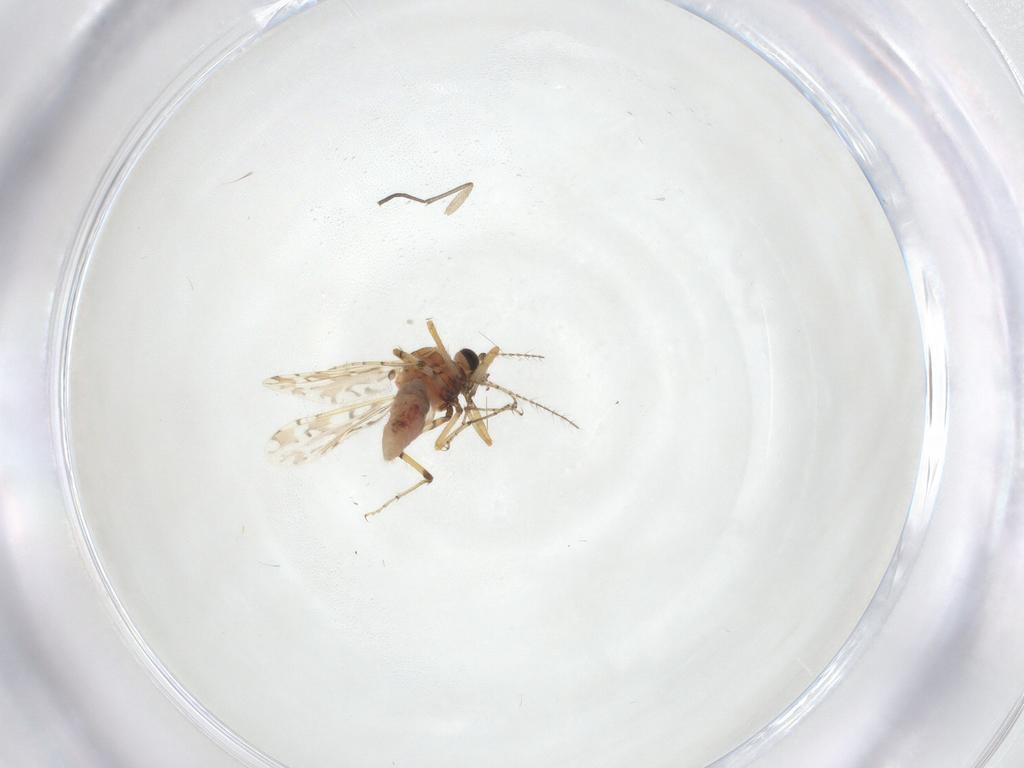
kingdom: Animalia
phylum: Arthropoda
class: Insecta
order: Diptera
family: Ceratopogonidae
